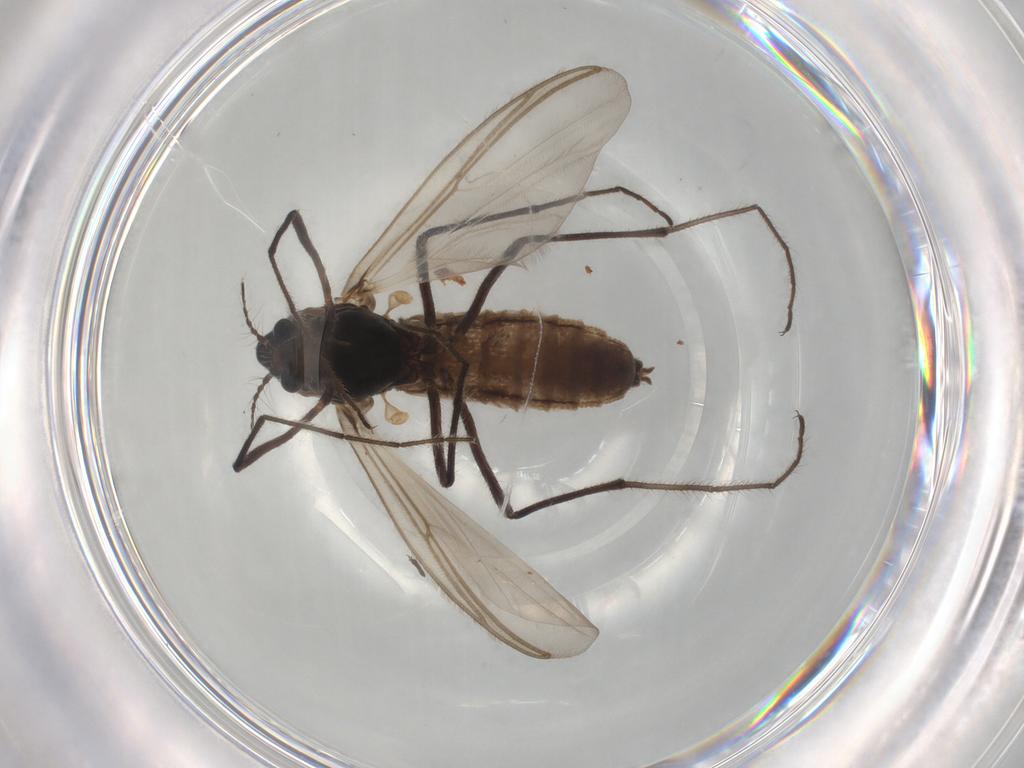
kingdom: Animalia
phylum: Arthropoda
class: Insecta
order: Diptera
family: Chironomidae
